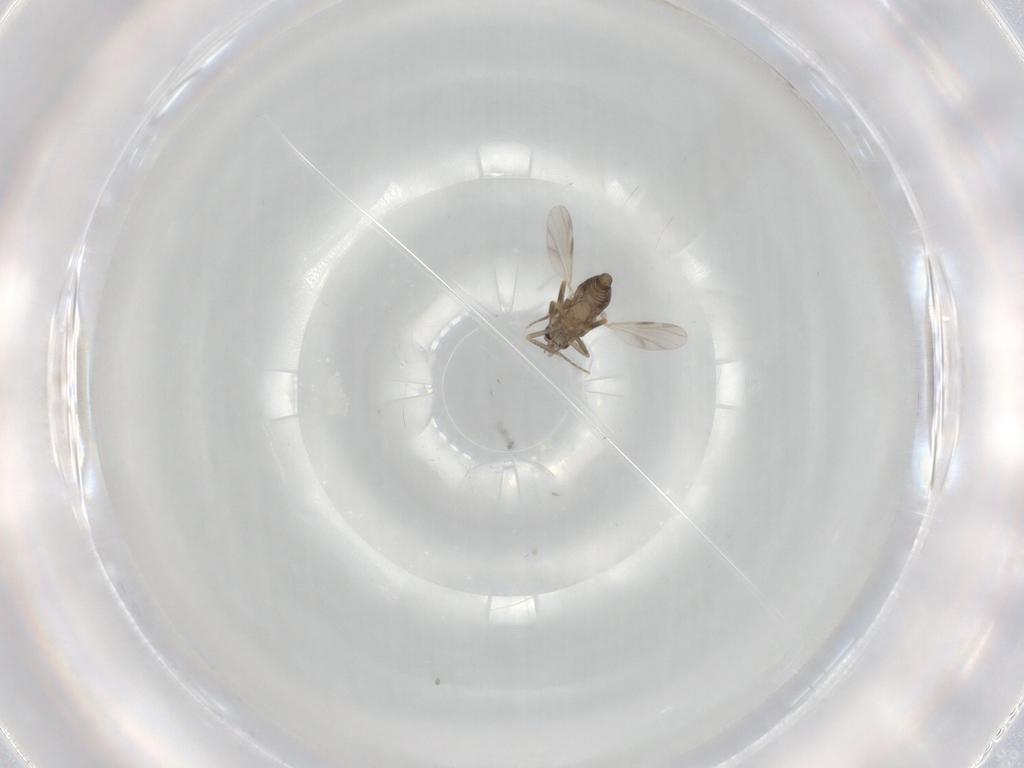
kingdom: Animalia
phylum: Arthropoda
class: Insecta
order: Diptera
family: Ceratopogonidae
